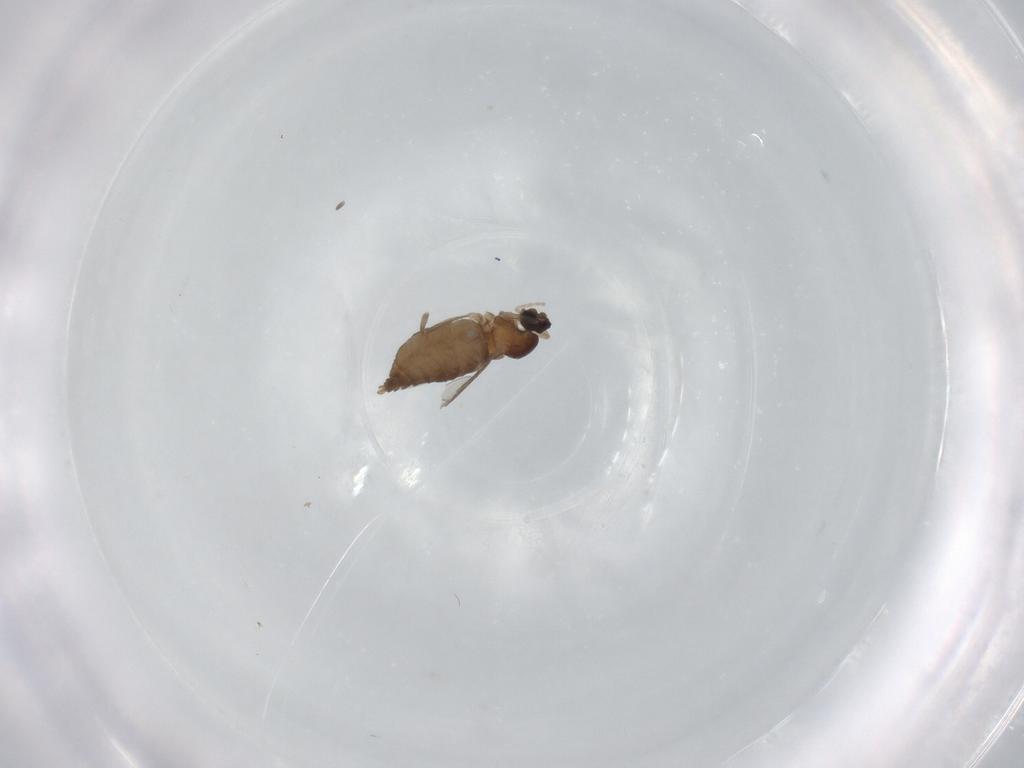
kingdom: Animalia
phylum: Arthropoda
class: Insecta
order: Diptera
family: Cecidomyiidae
